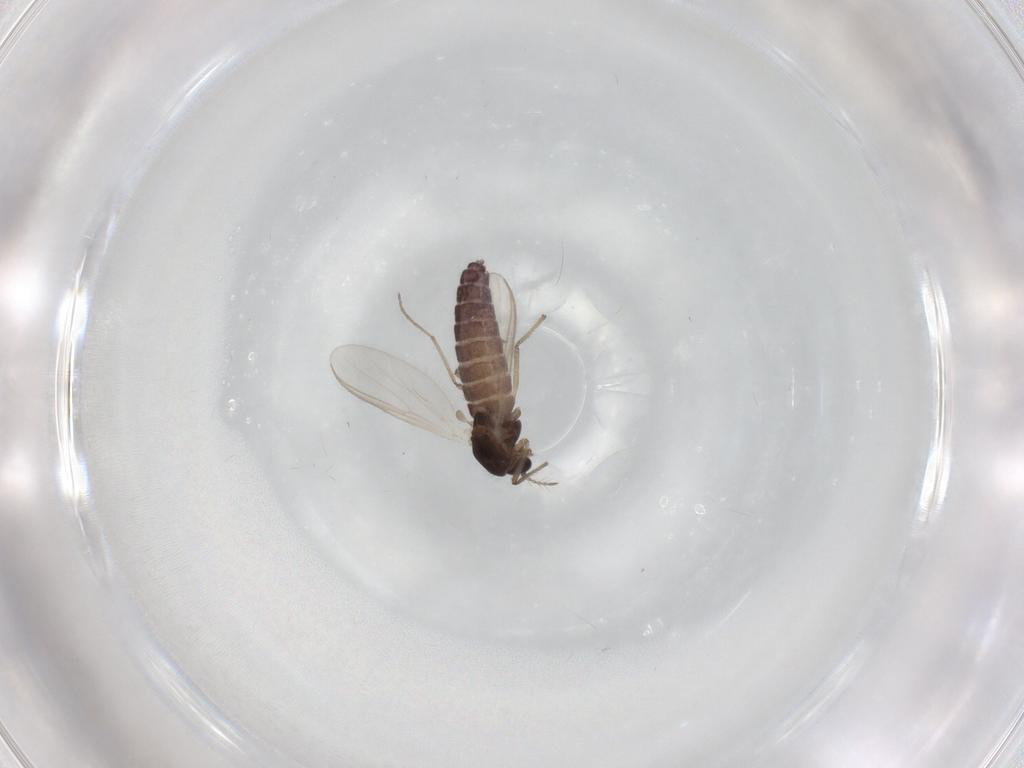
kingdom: Animalia
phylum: Arthropoda
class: Insecta
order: Diptera
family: Chironomidae
